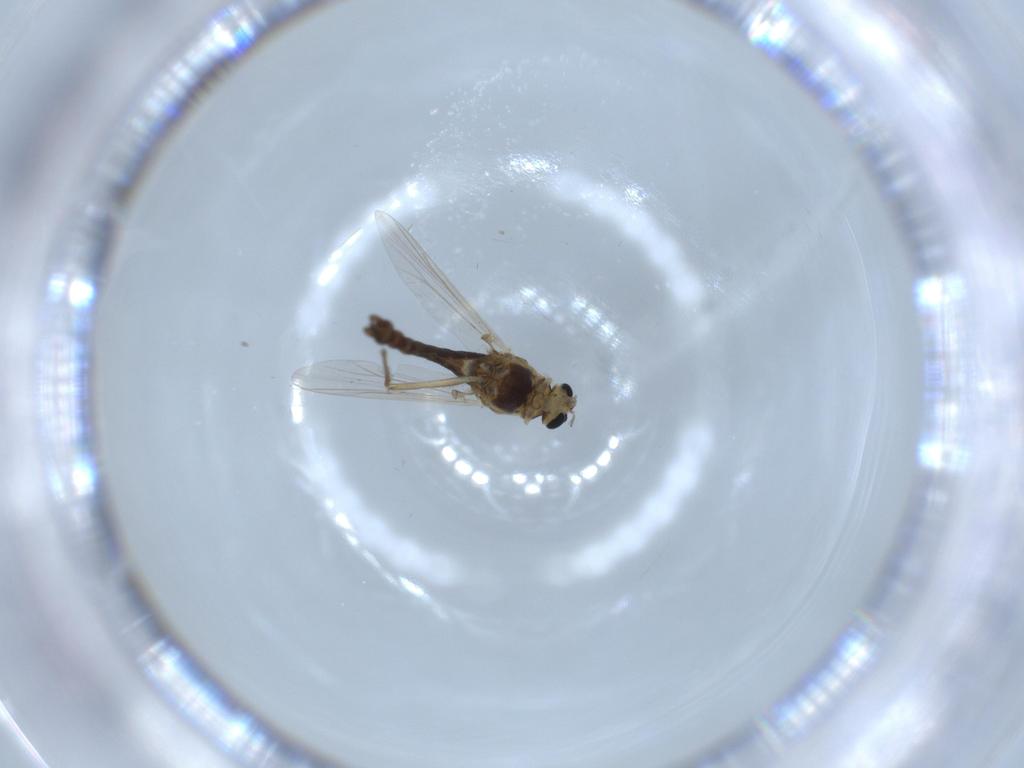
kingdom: Animalia
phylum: Arthropoda
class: Insecta
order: Diptera
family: Chironomidae
